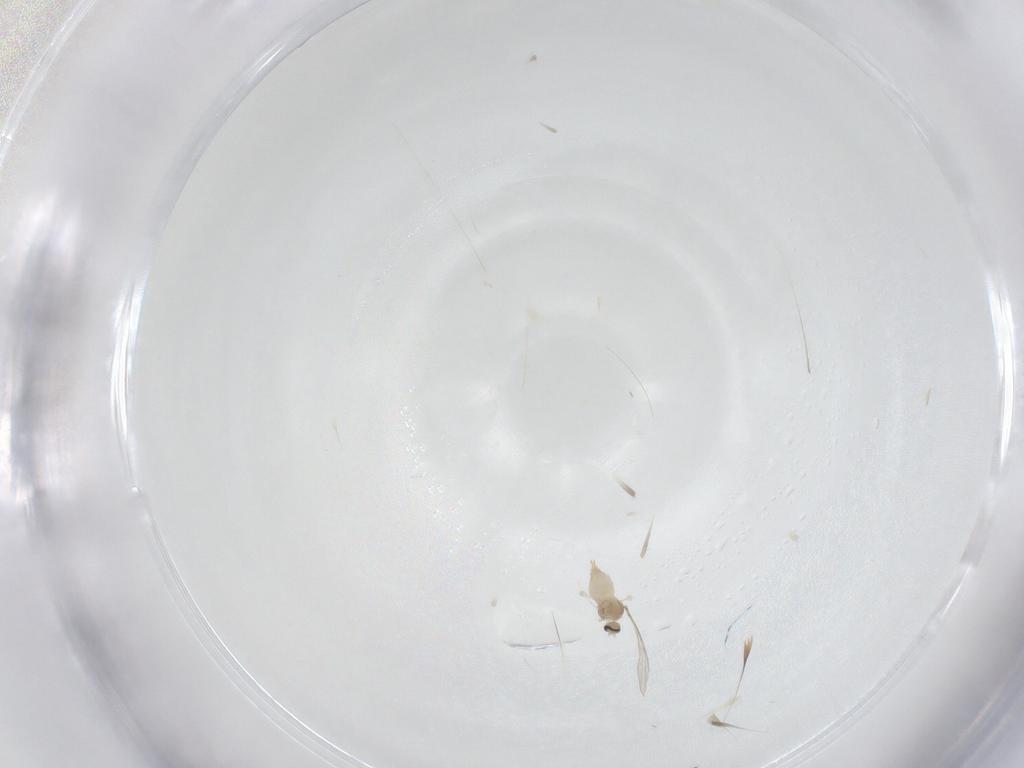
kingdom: Animalia
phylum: Arthropoda
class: Insecta
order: Diptera
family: Cecidomyiidae
